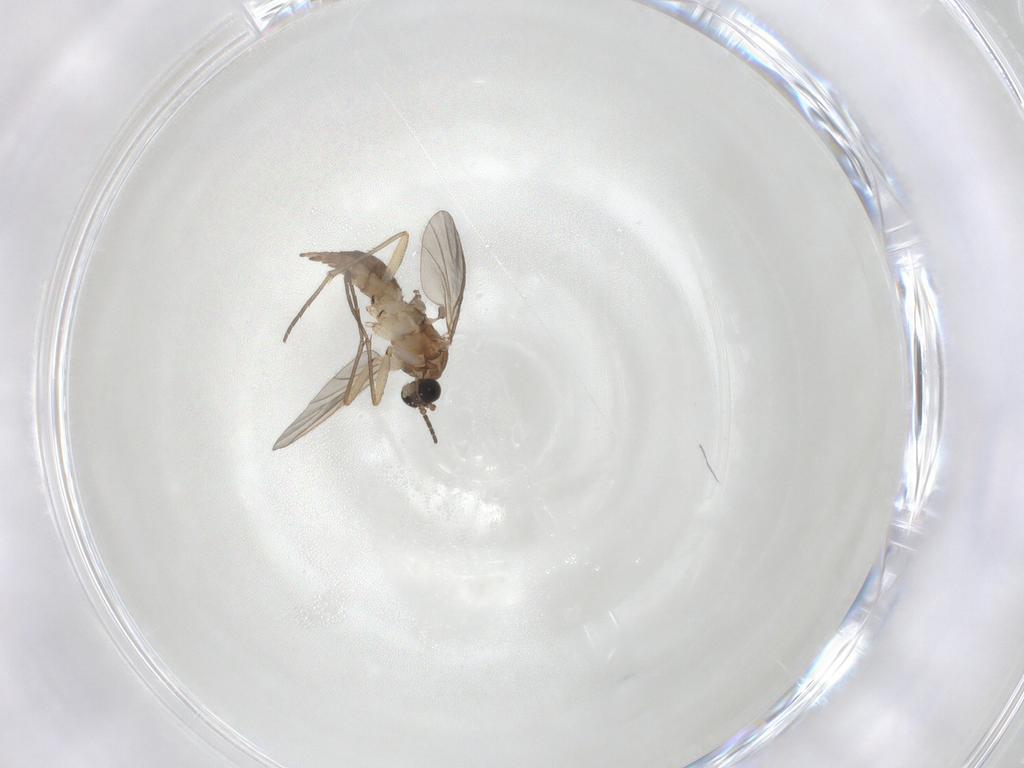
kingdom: Animalia
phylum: Arthropoda
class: Insecta
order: Diptera
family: Sciaridae
